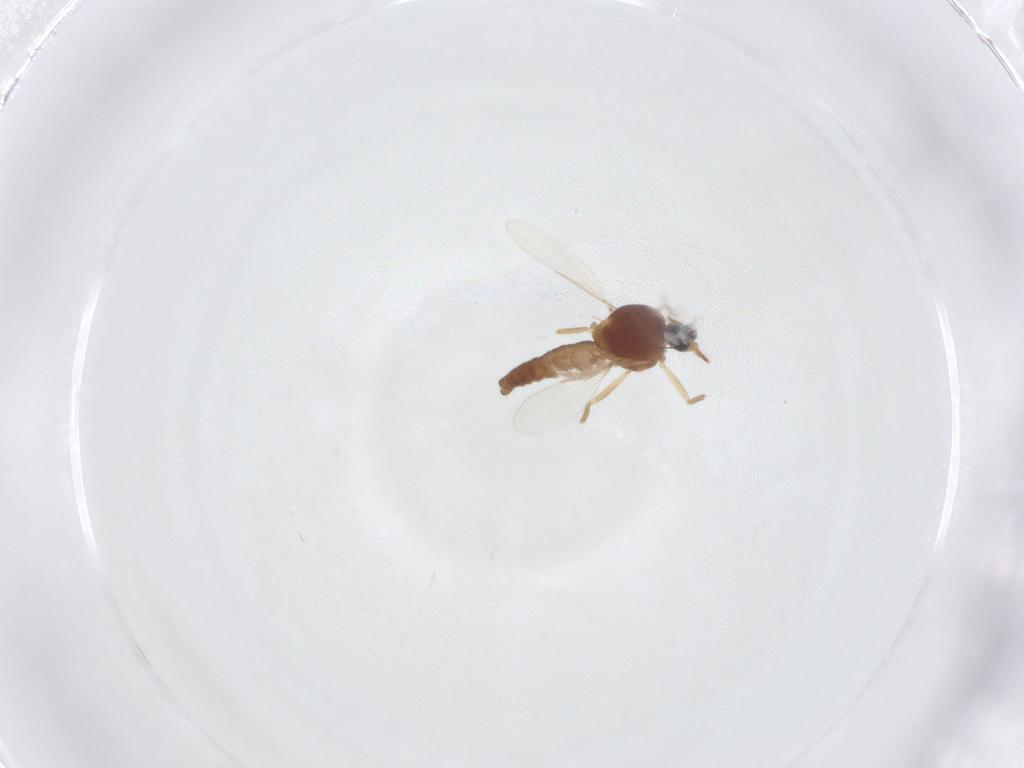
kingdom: Animalia
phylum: Arthropoda
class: Insecta
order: Diptera
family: Ceratopogonidae
